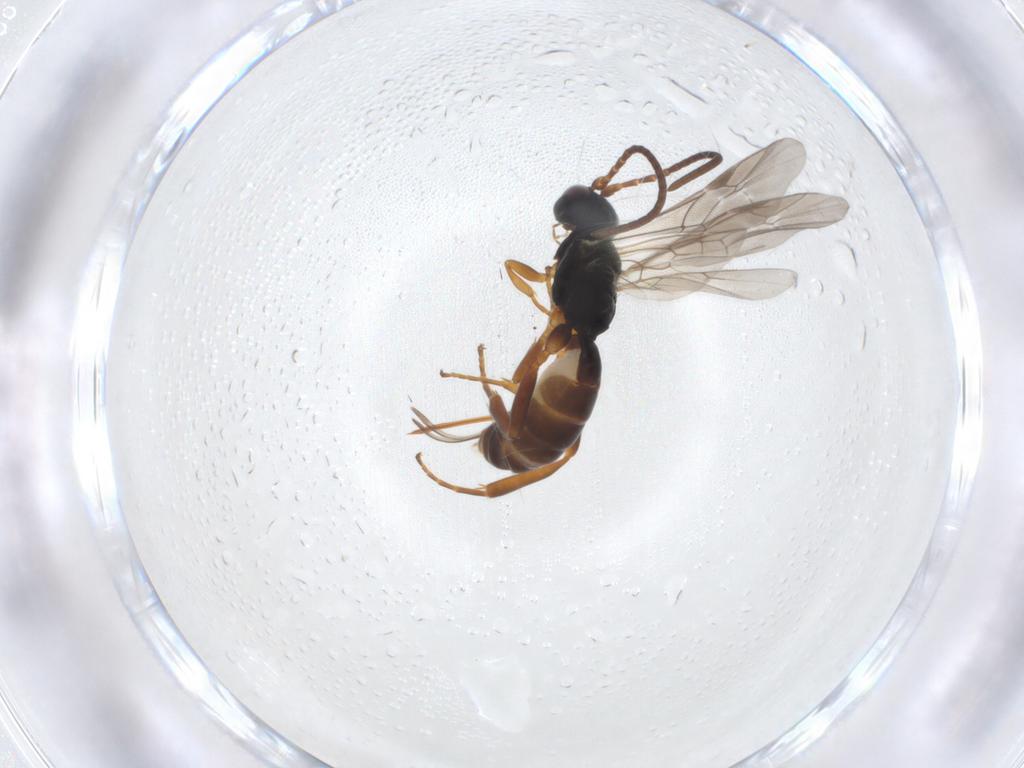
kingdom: Animalia
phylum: Arthropoda
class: Insecta
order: Hymenoptera
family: Ichneumonidae
